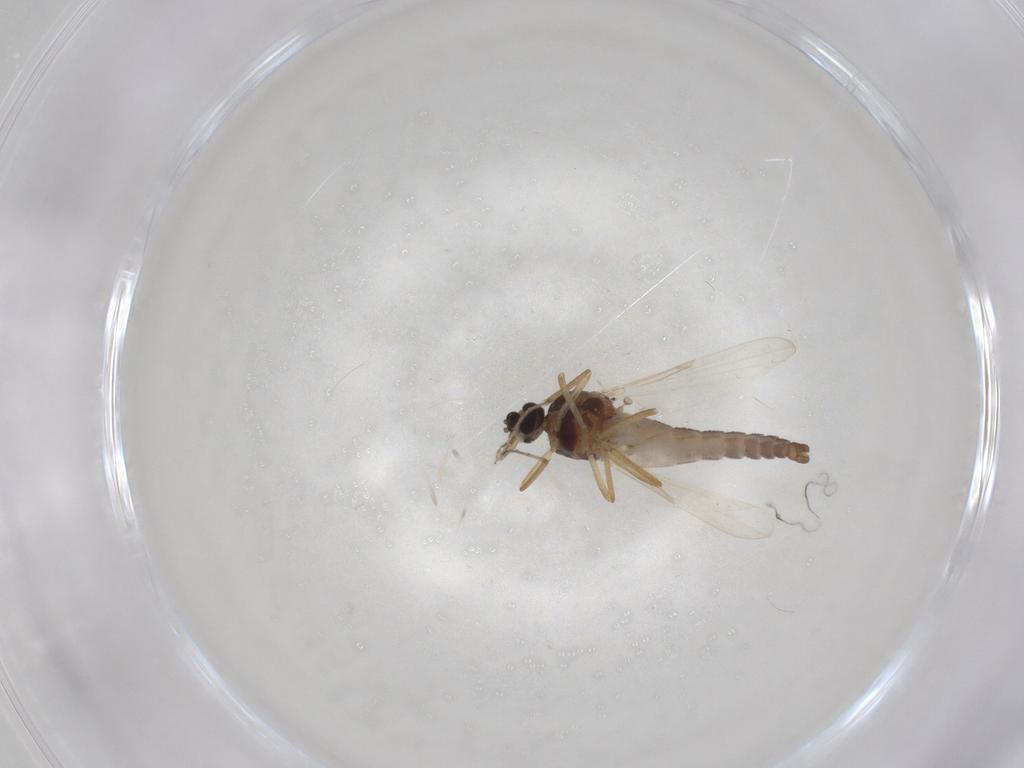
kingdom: Animalia
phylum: Arthropoda
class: Insecta
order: Diptera
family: Ceratopogonidae
